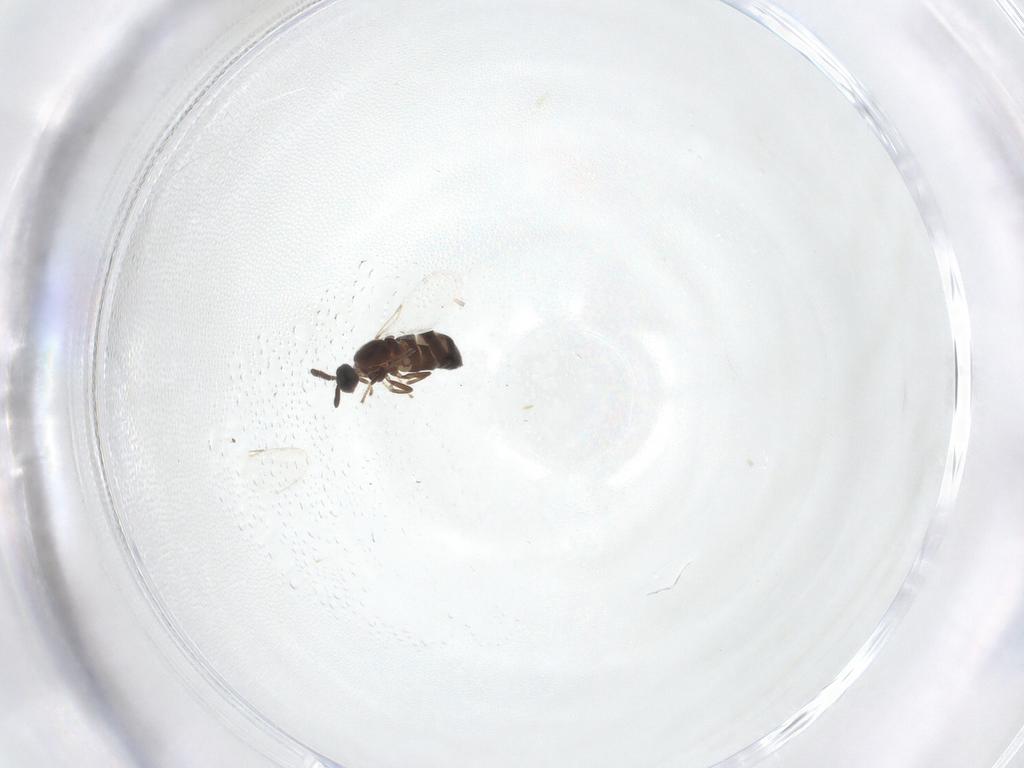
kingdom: Animalia
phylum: Arthropoda
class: Insecta
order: Diptera
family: Scatopsidae
